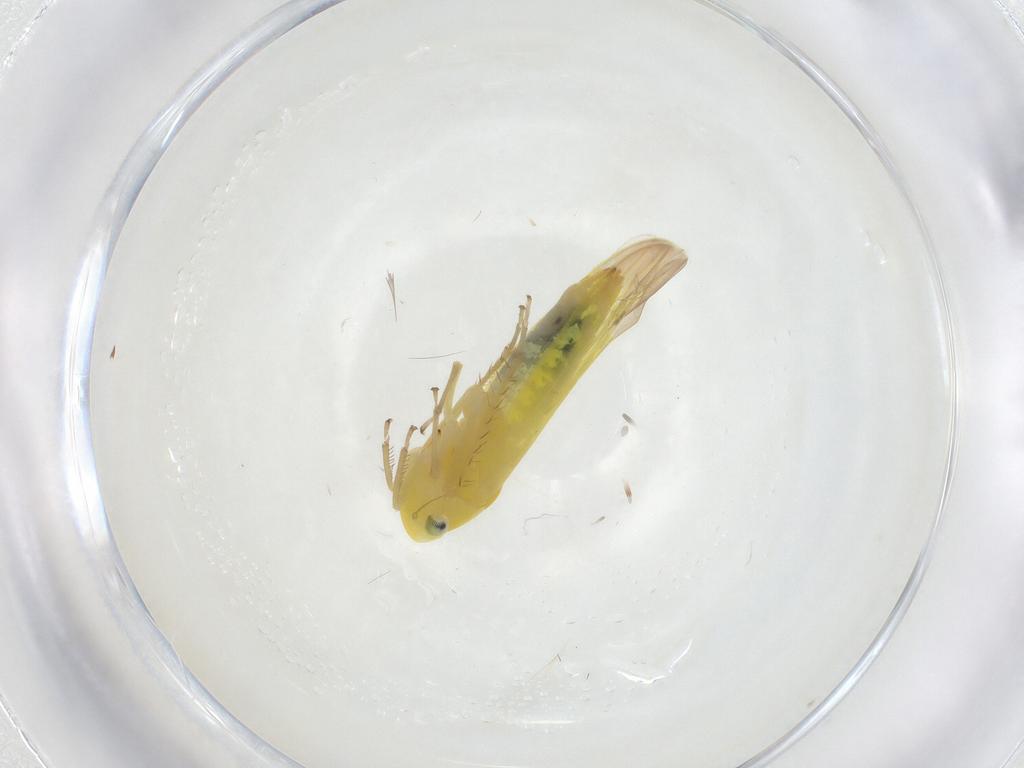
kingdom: Animalia
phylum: Arthropoda
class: Insecta
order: Hemiptera
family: Cicadellidae
